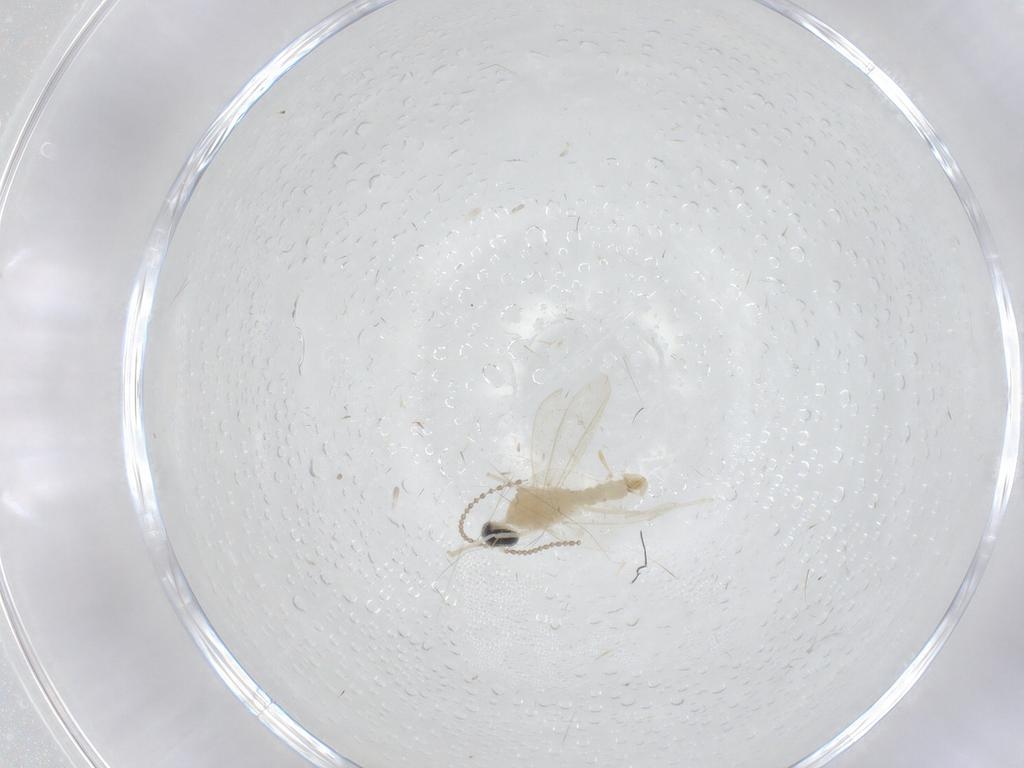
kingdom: Animalia
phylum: Arthropoda
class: Insecta
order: Diptera
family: Cecidomyiidae
